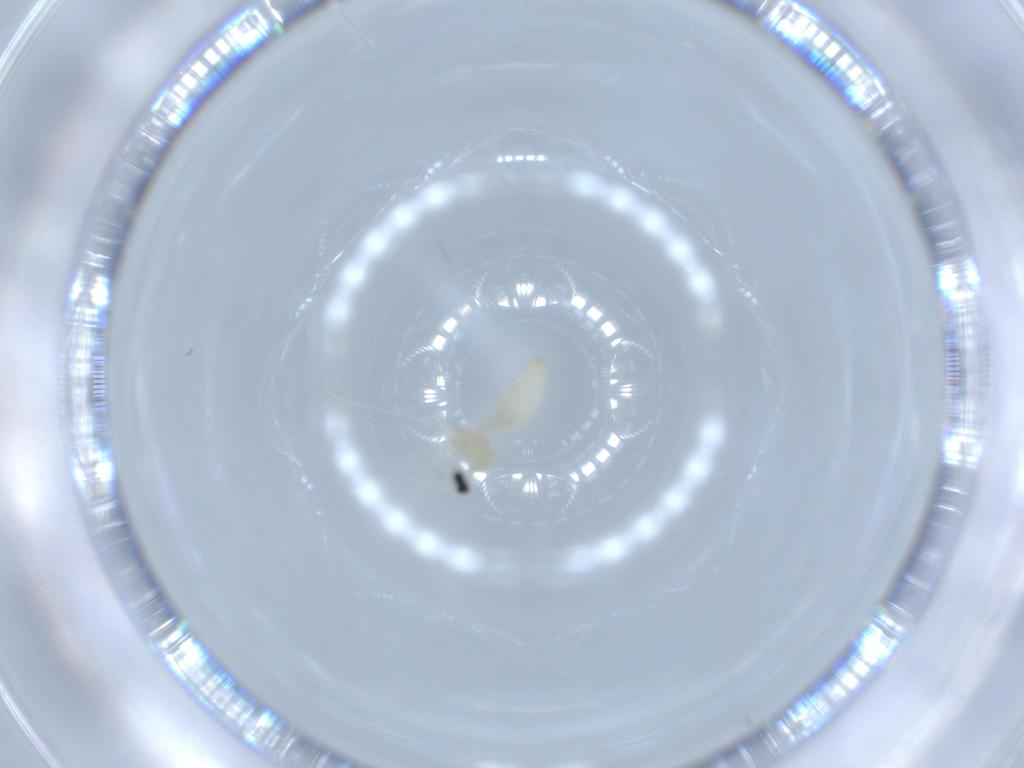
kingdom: Animalia
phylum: Arthropoda
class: Insecta
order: Diptera
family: Cecidomyiidae
